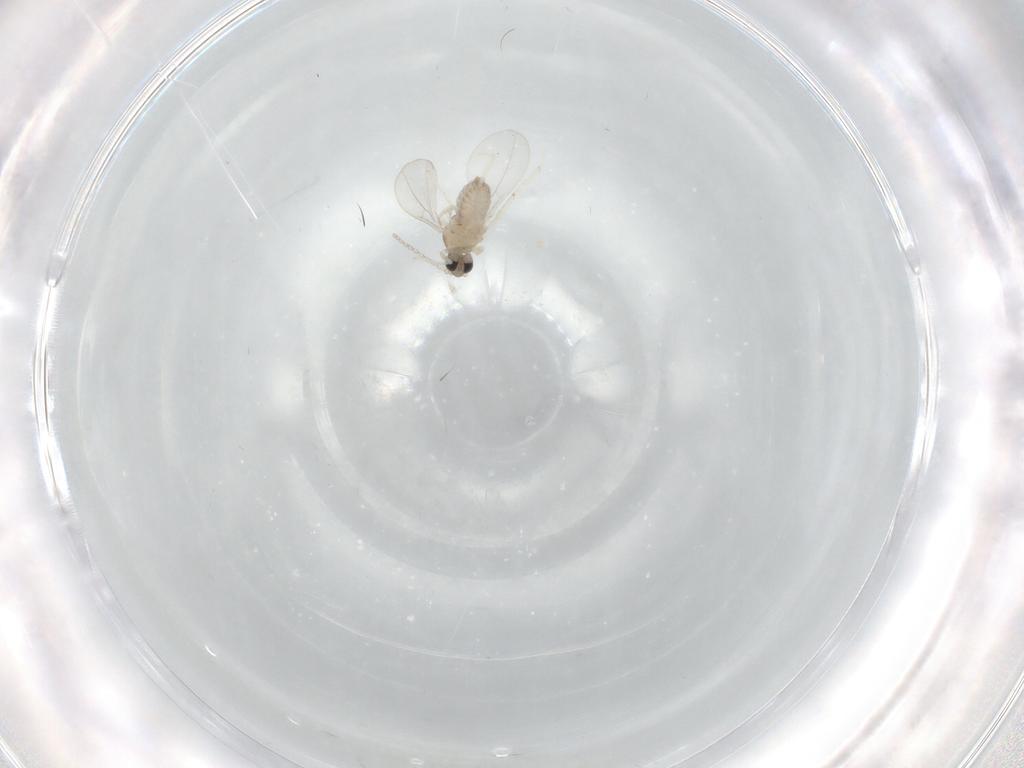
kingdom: Animalia
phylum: Arthropoda
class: Insecta
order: Diptera
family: Cecidomyiidae
